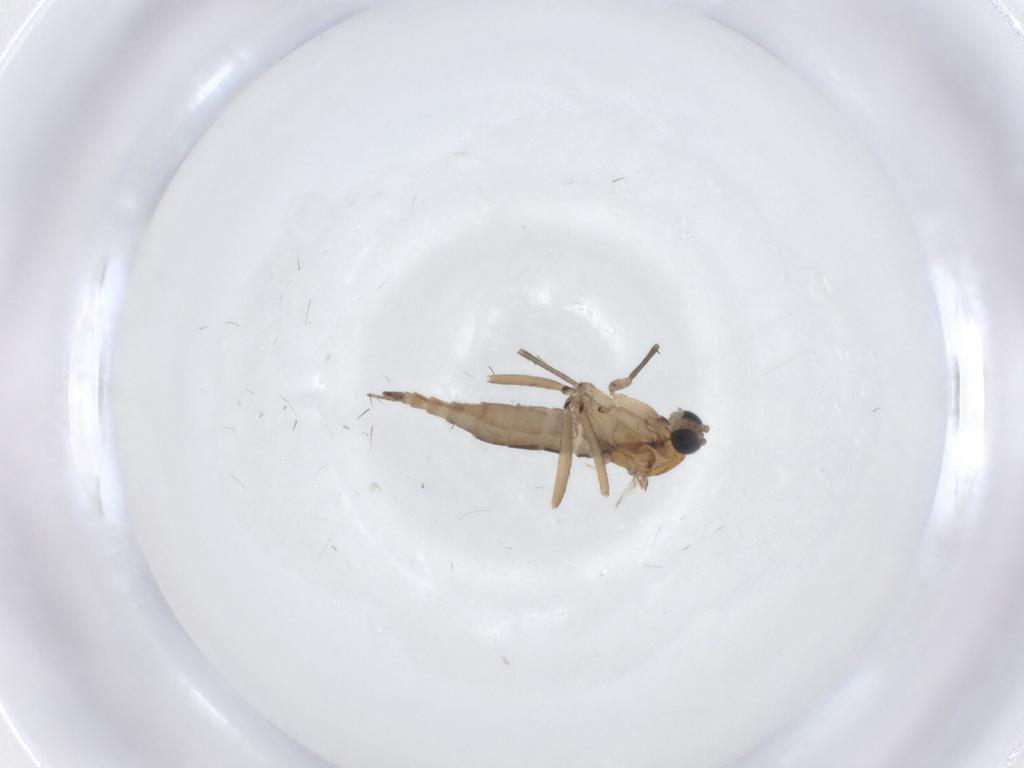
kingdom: Animalia
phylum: Arthropoda
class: Insecta
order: Diptera
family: Sciaridae
